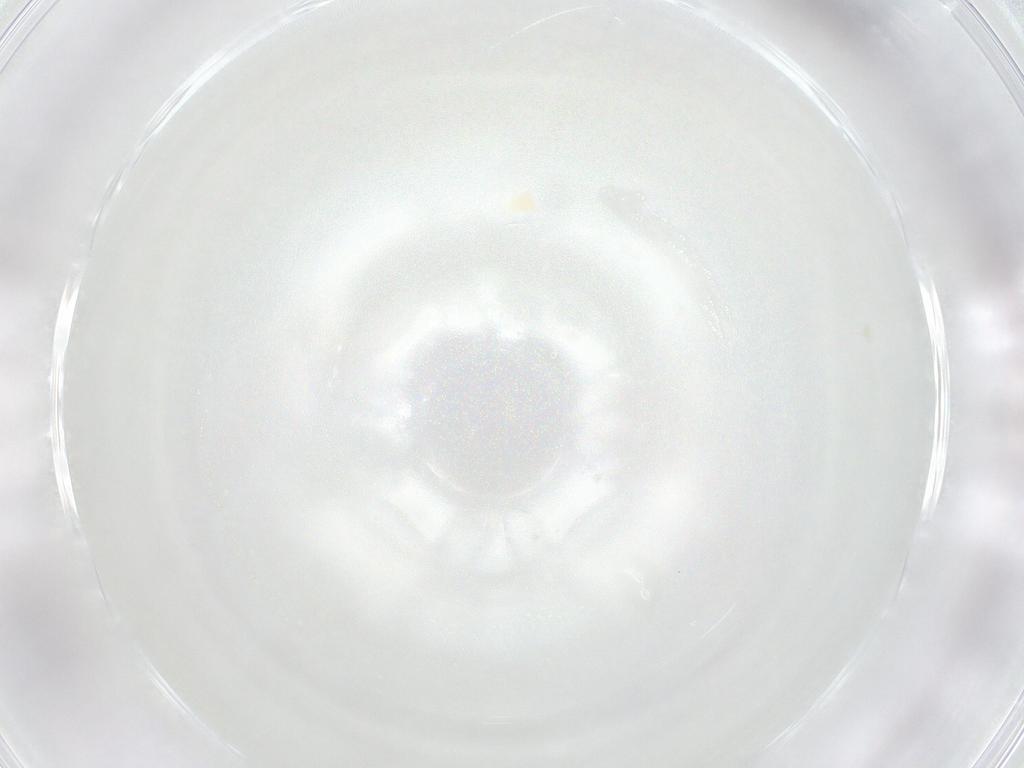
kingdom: Animalia
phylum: Arthropoda
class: Arachnida
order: Trombidiformes
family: Eupodidae
